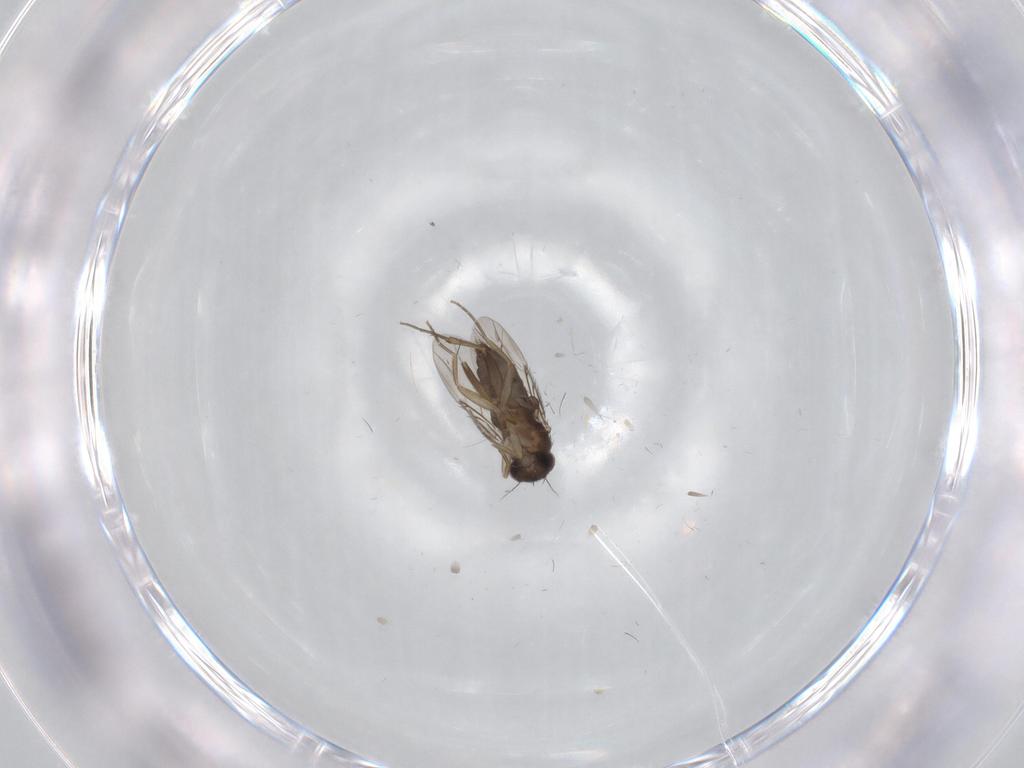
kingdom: Animalia
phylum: Arthropoda
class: Insecta
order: Diptera
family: Phoridae
